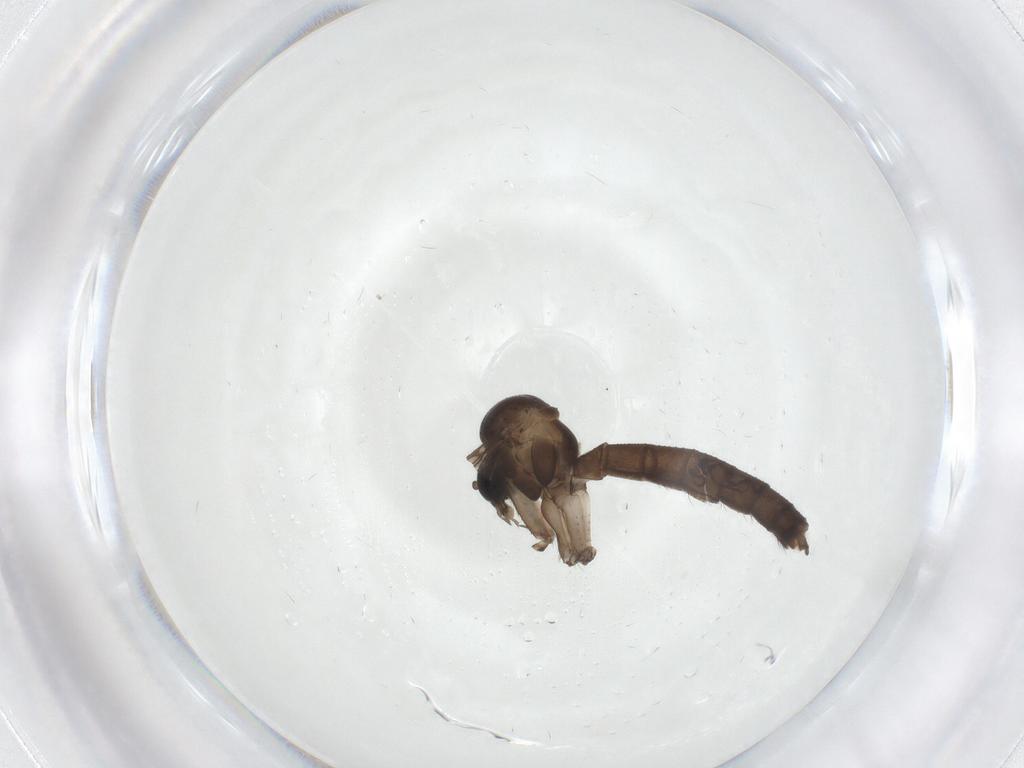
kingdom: Animalia
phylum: Arthropoda
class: Insecta
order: Diptera
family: Mycetophilidae
